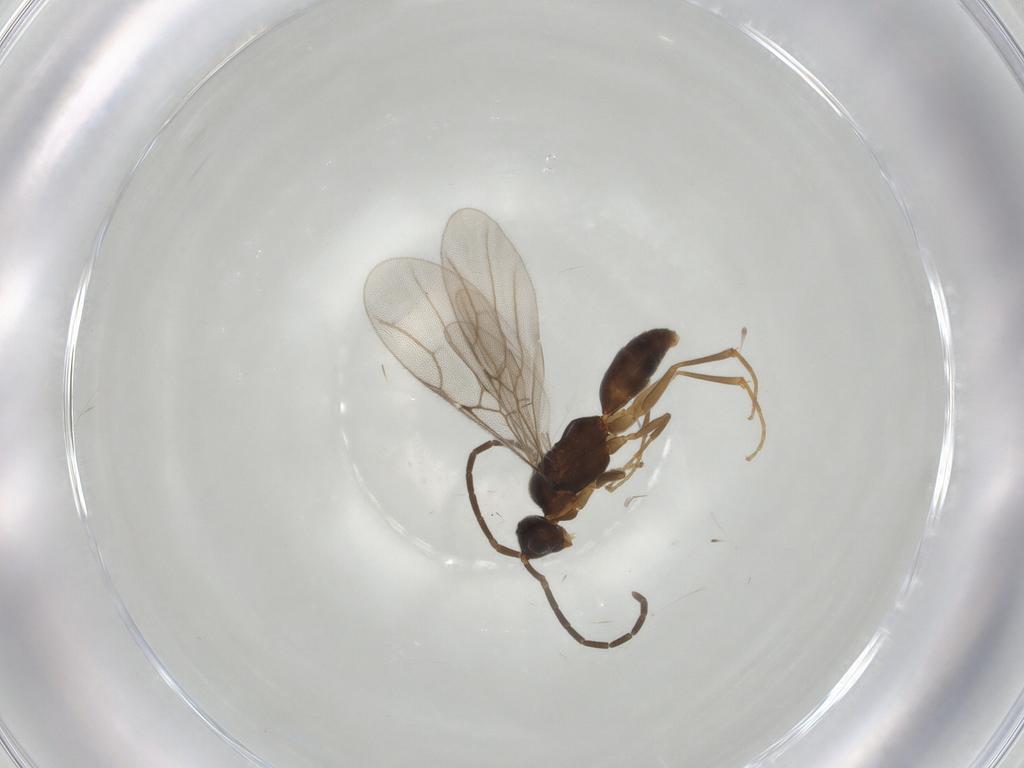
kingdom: Animalia
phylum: Arthropoda
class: Insecta
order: Hymenoptera
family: Embolemidae
